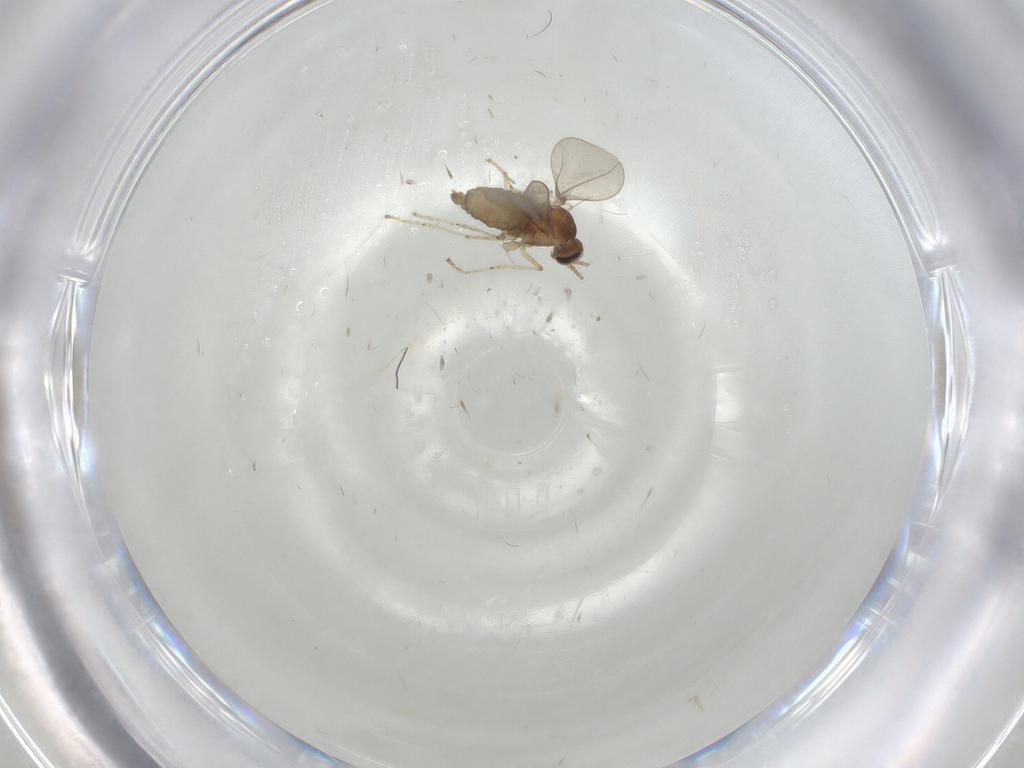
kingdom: Animalia
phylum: Arthropoda
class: Insecta
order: Diptera
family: Cecidomyiidae
